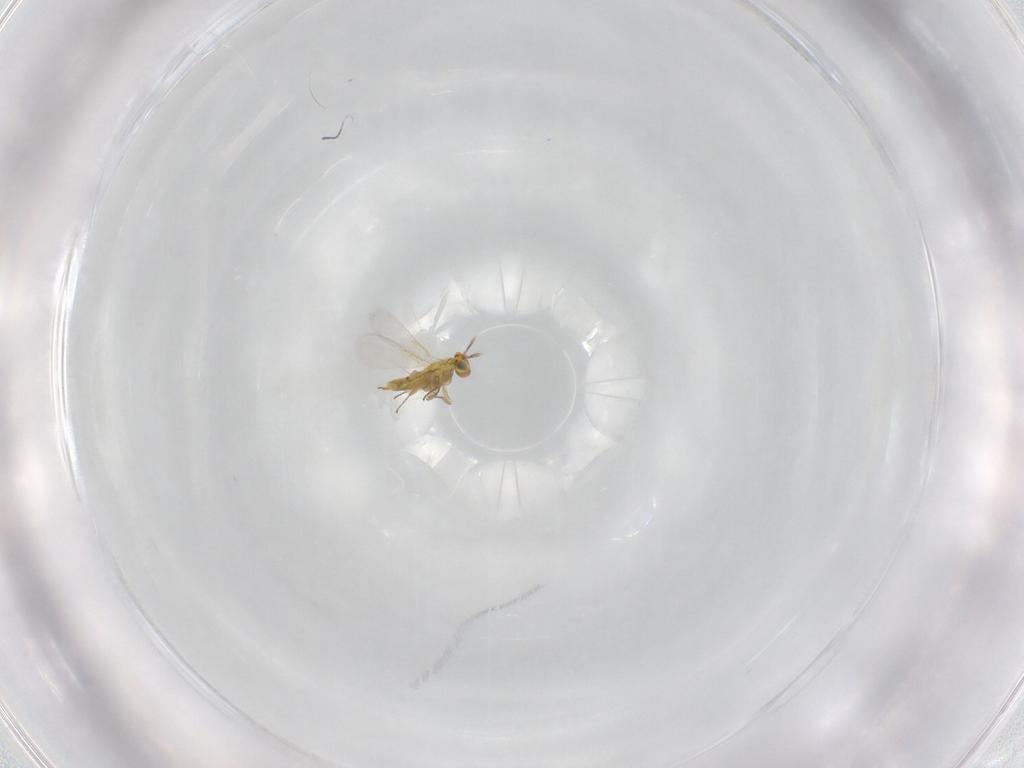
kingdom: Animalia
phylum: Arthropoda
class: Insecta
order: Hymenoptera
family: Aphelinidae
